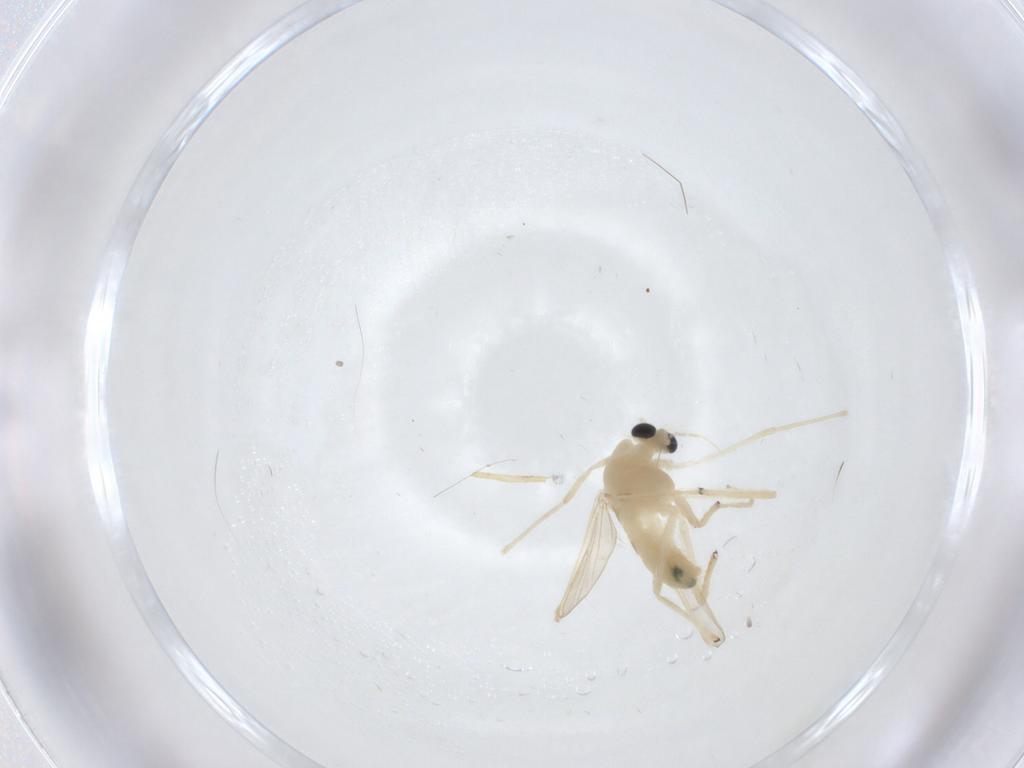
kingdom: Animalia
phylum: Arthropoda
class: Insecta
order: Diptera
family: Chironomidae
